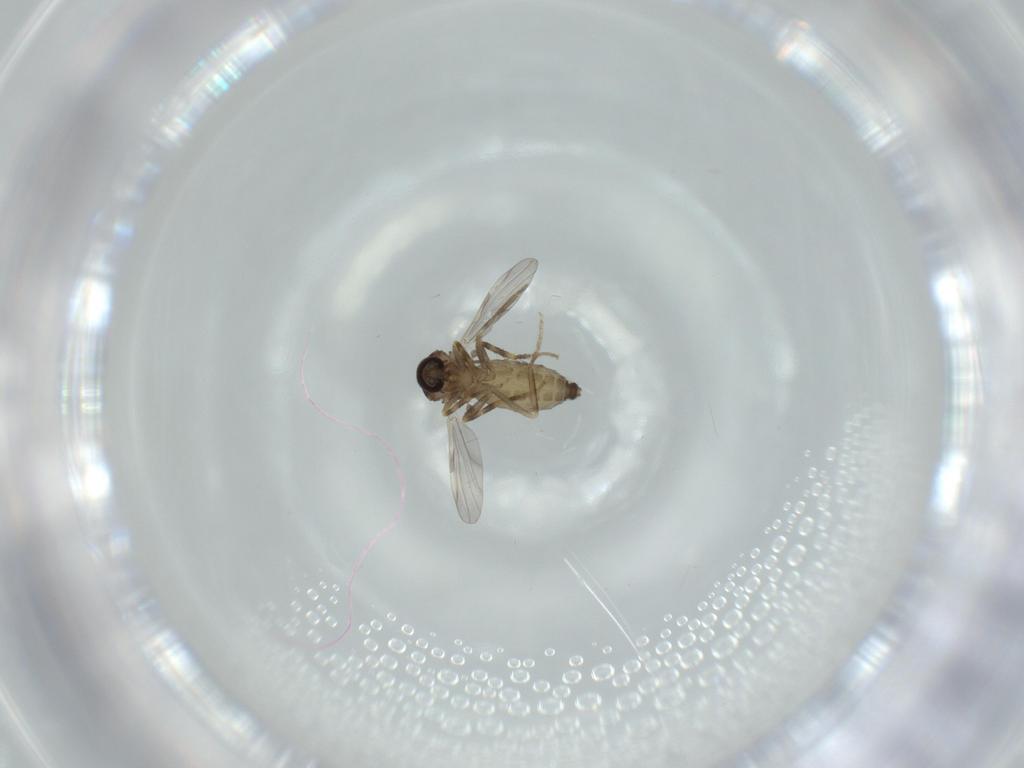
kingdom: Animalia
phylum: Arthropoda
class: Insecta
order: Diptera
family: Ceratopogonidae
